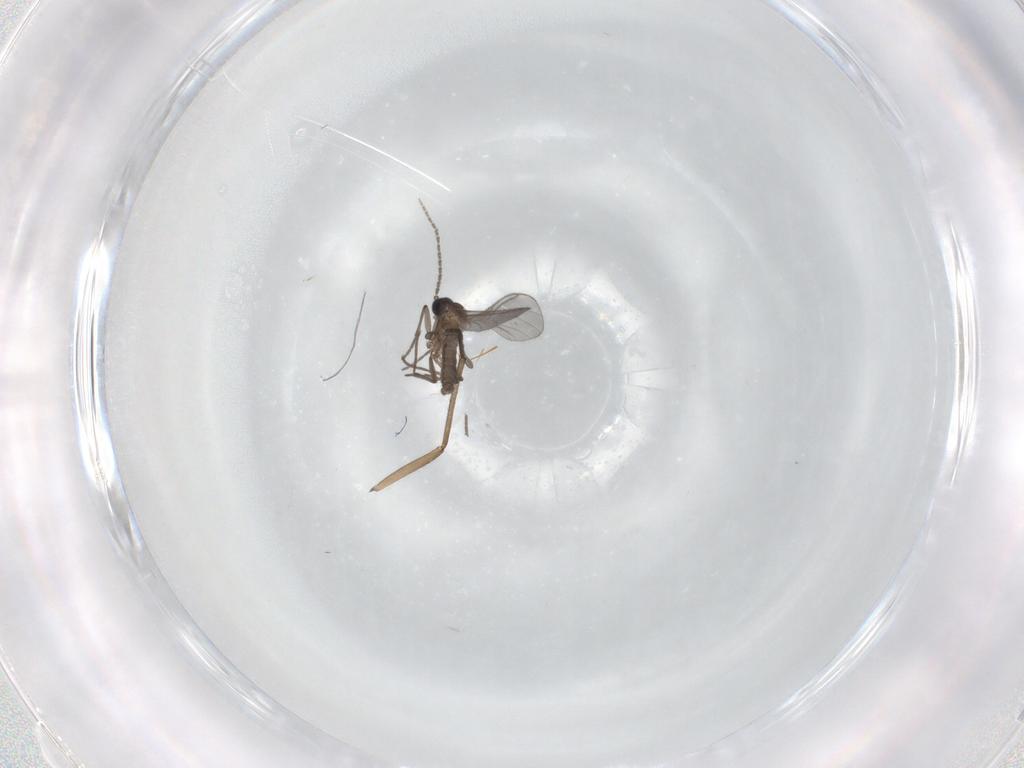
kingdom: Animalia
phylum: Arthropoda
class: Insecta
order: Diptera
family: Sciaridae
